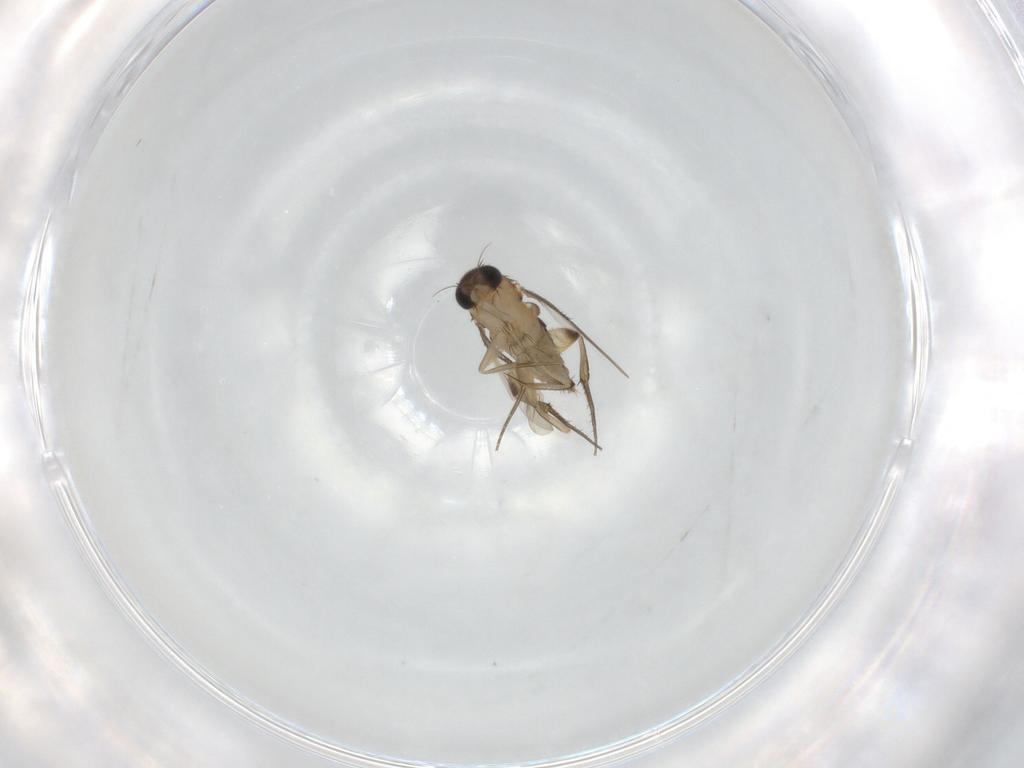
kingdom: Animalia
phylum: Arthropoda
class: Insecta
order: Diptera
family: Phoridae
